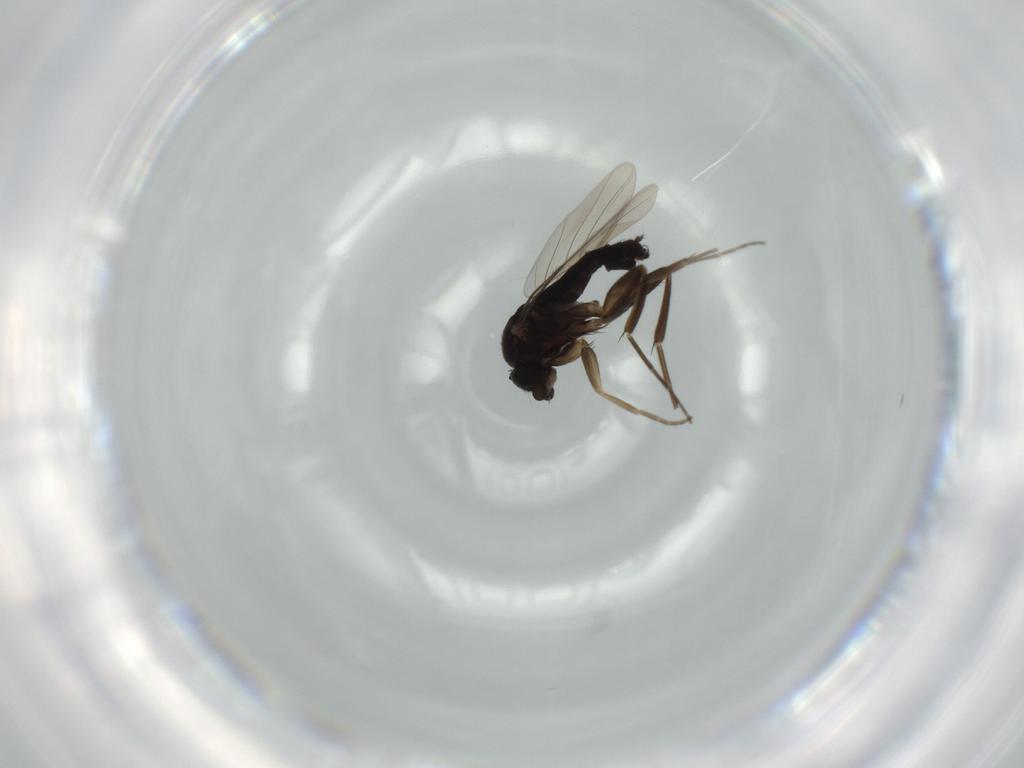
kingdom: Animalia
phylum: Arthropoda
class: Insecta
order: Diptera
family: Phoridae
